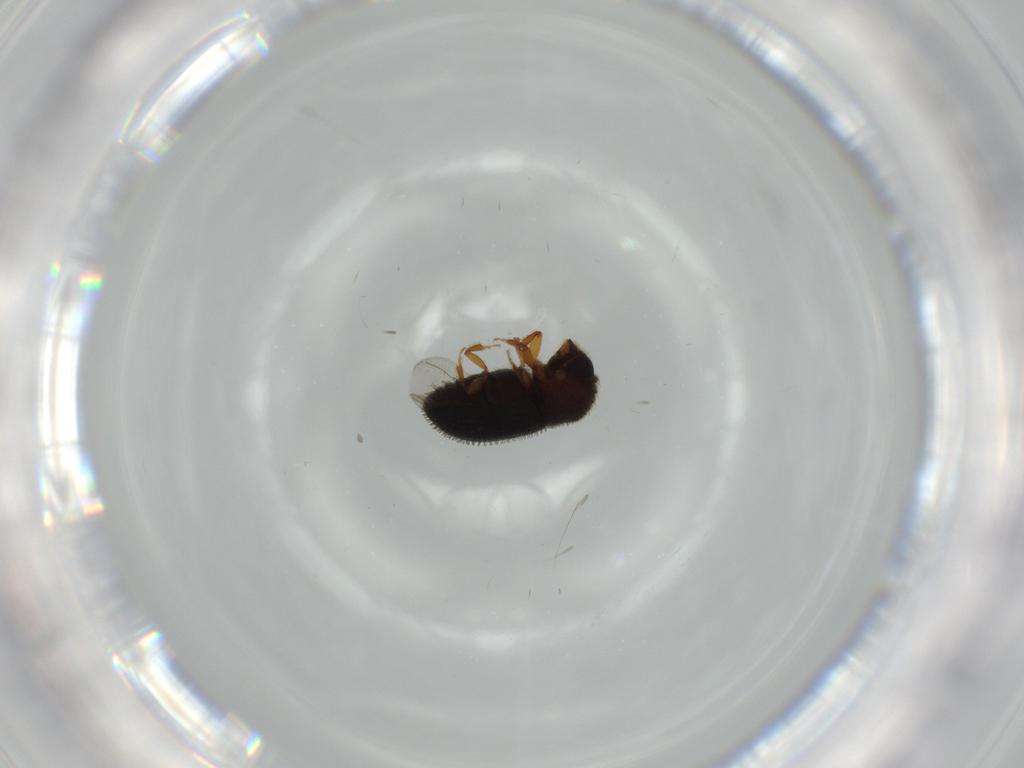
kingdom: Animalia
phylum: Arthropoda
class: Insecta
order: Coleoptera
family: Curculionidae
